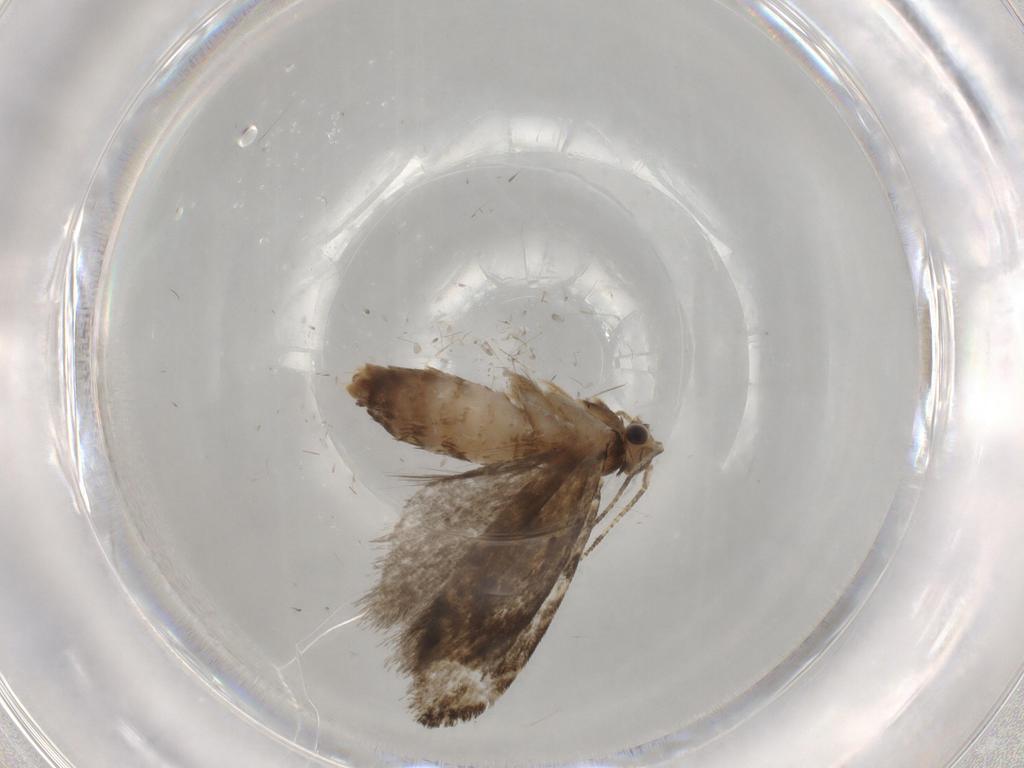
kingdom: Animalia
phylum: Arthropoda
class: Insecta
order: Lepidoptera
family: Tineidae
